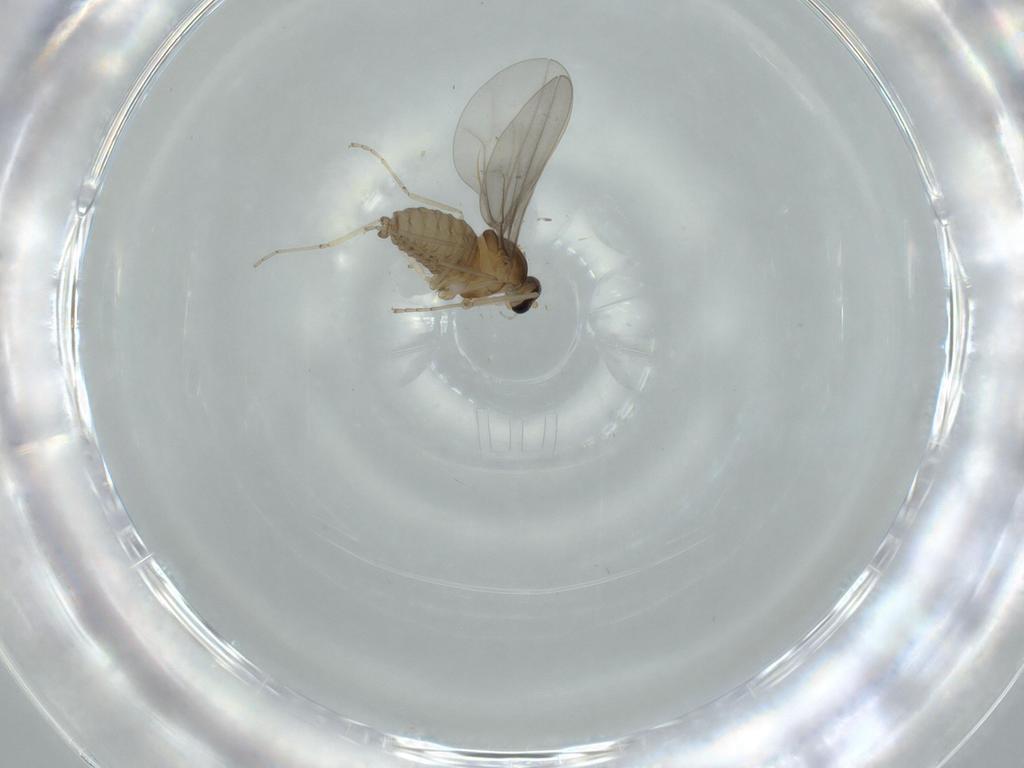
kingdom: Animalia
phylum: Arthropoda
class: Insecta
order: Diptera
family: Cecidomyiidae
